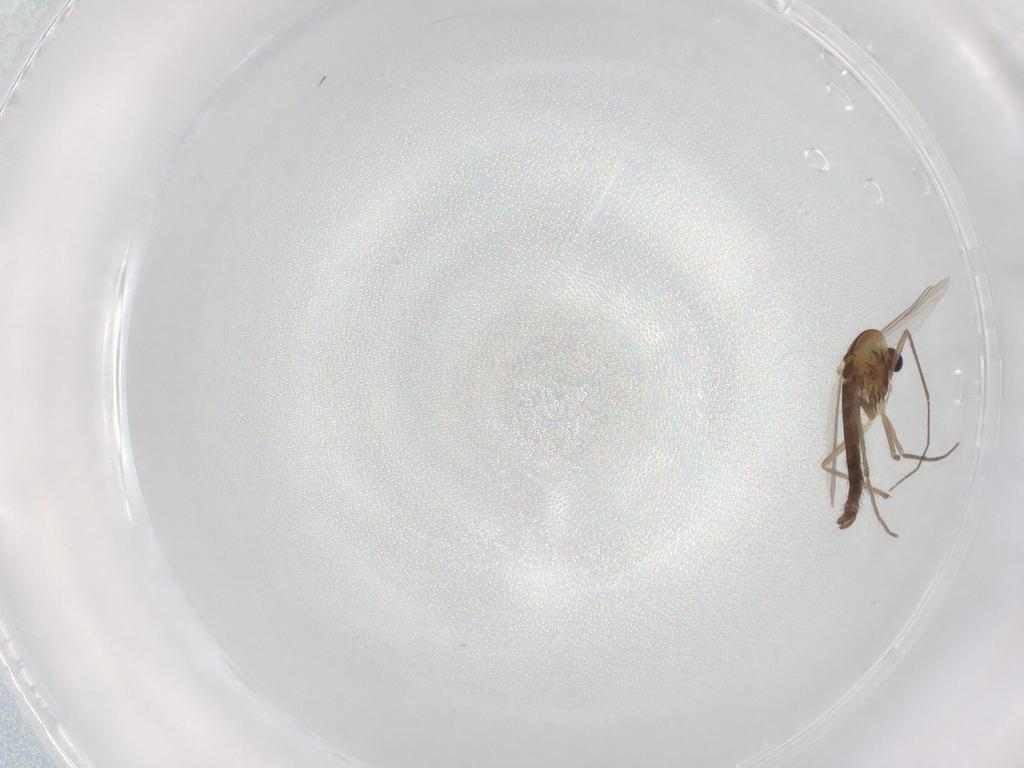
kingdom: Animalia
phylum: Arthropoda
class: Insecta
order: Diptera
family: Chironomidae
